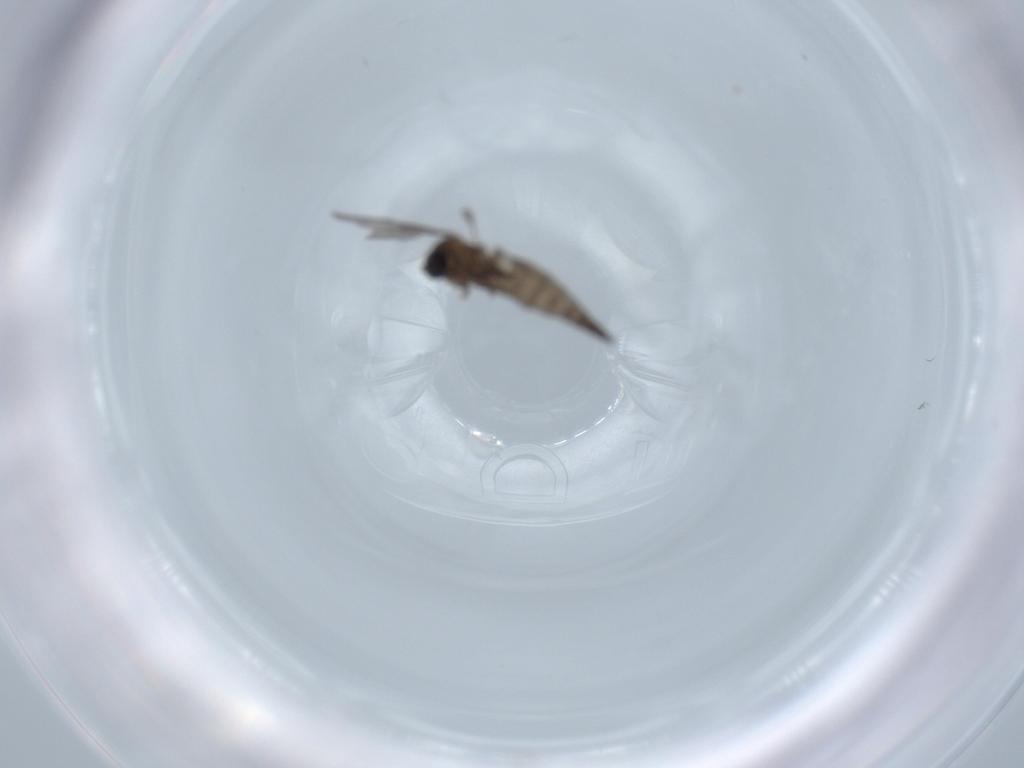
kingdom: Animalia
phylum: Arthropoda
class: Insecta
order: Diptera
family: Sciaridae
